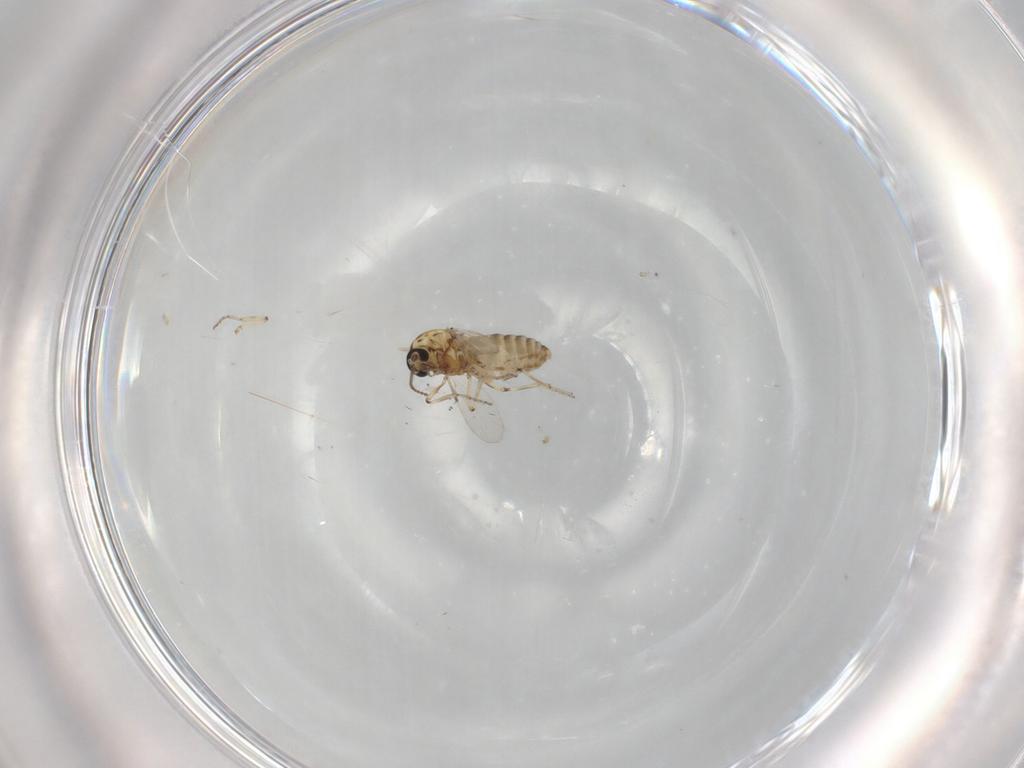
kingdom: Animalia
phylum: Arthropoda
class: Insecta
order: Diptera
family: Ceratopogonidae
